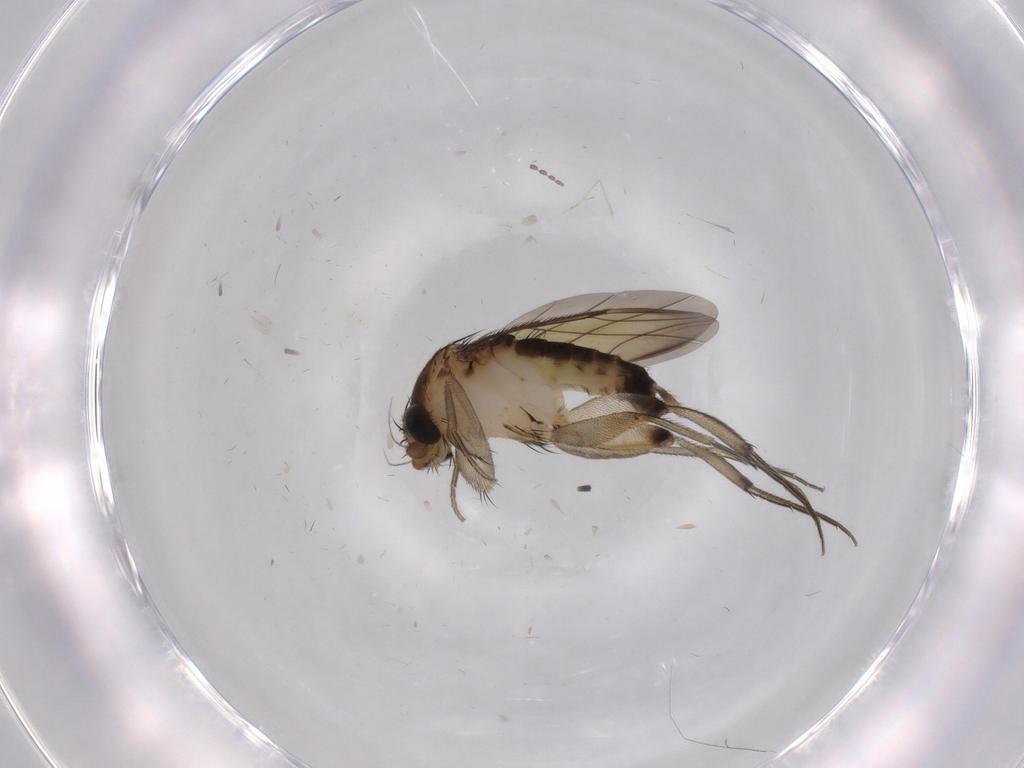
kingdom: Animalia
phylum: Arthropoda
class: Insecta
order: Diptera
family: Phoridae
